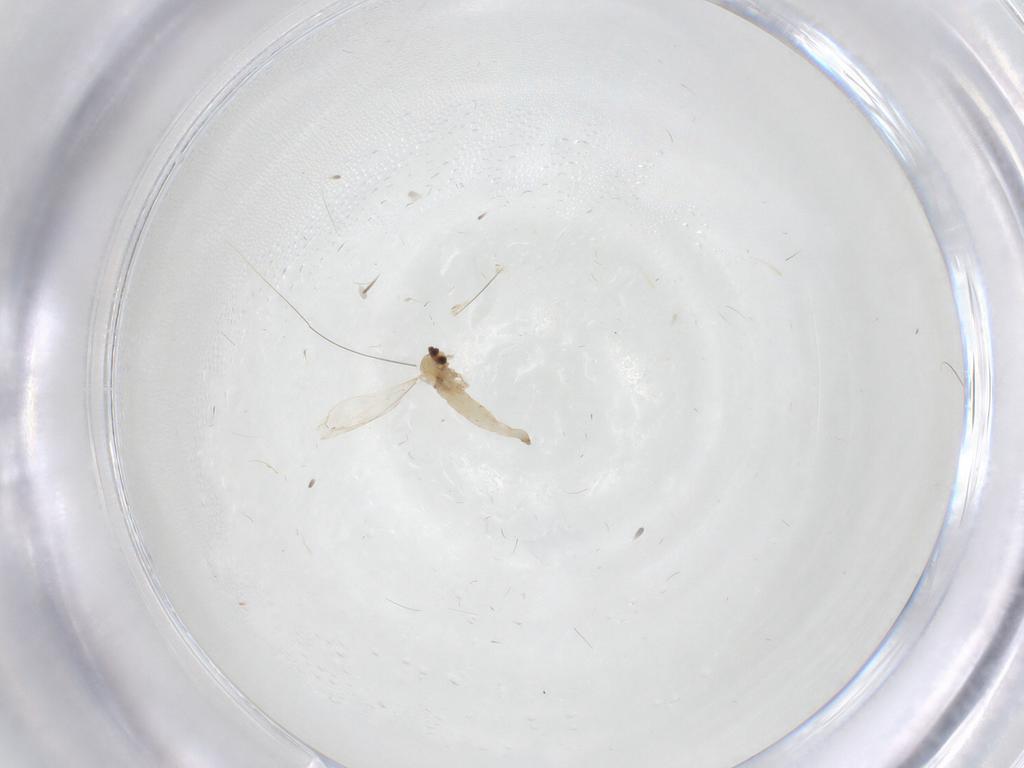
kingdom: Animalia
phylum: Arthropoda
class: Insecta
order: Diptera
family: Cecidomyiidae
